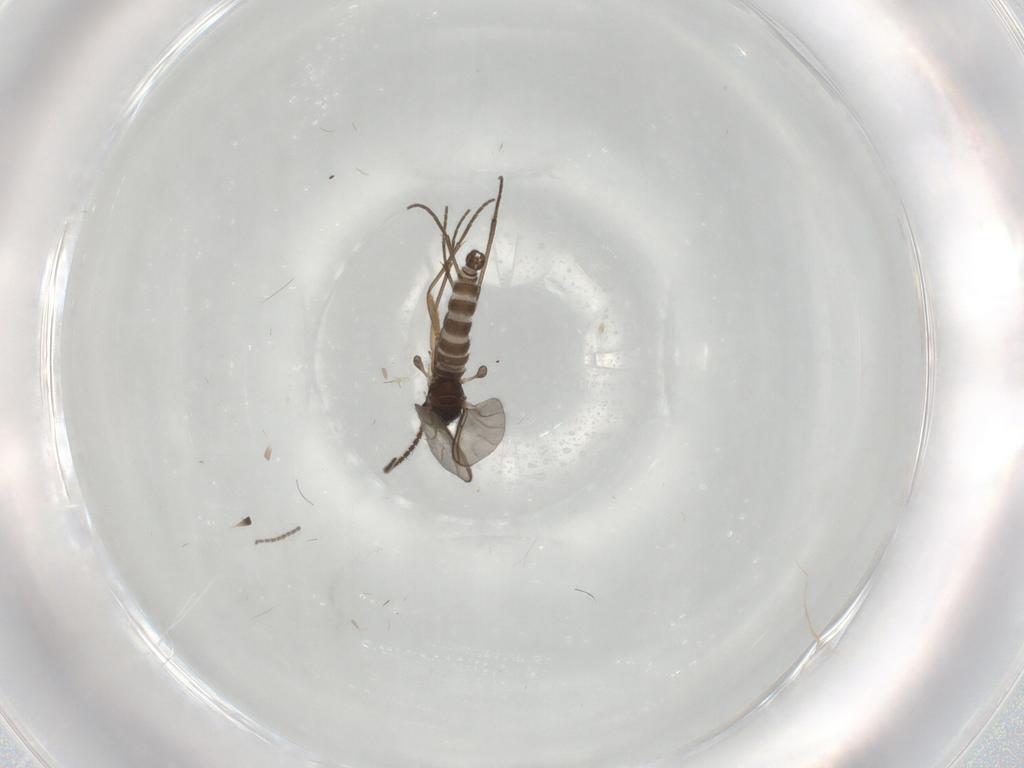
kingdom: Animalia
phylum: Arthropoda
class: Insecta
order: Diptera
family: Sciaridae
